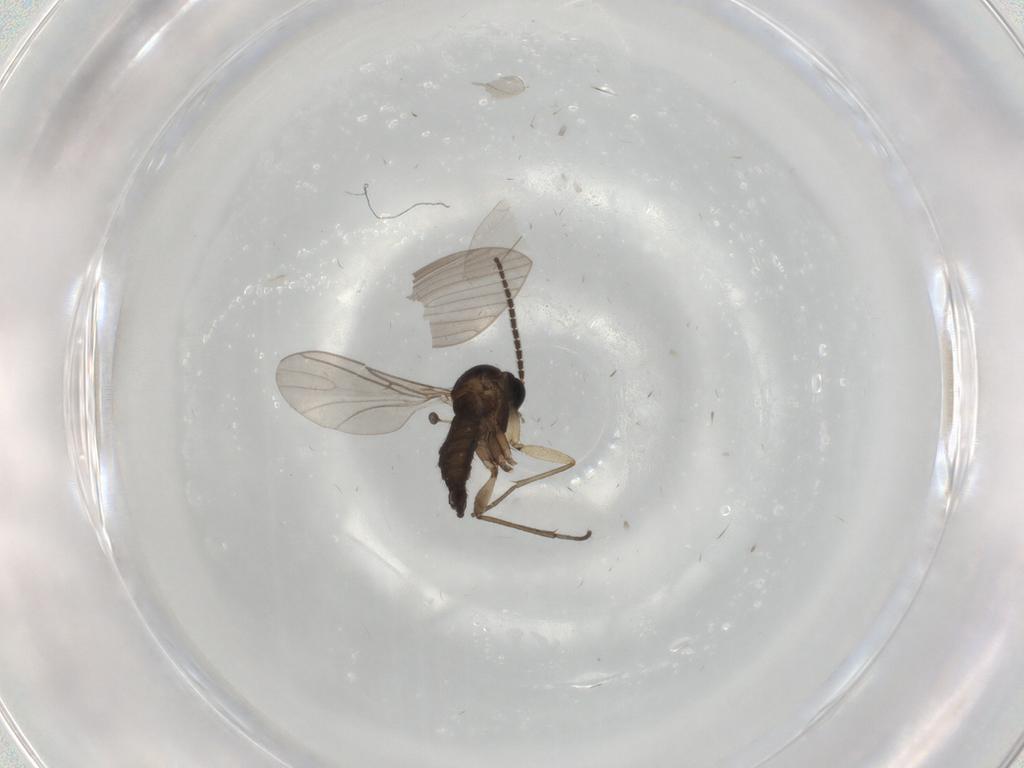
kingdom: Animalia
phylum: Arthropoda
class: Insecta
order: Diptera
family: Sciaridae
